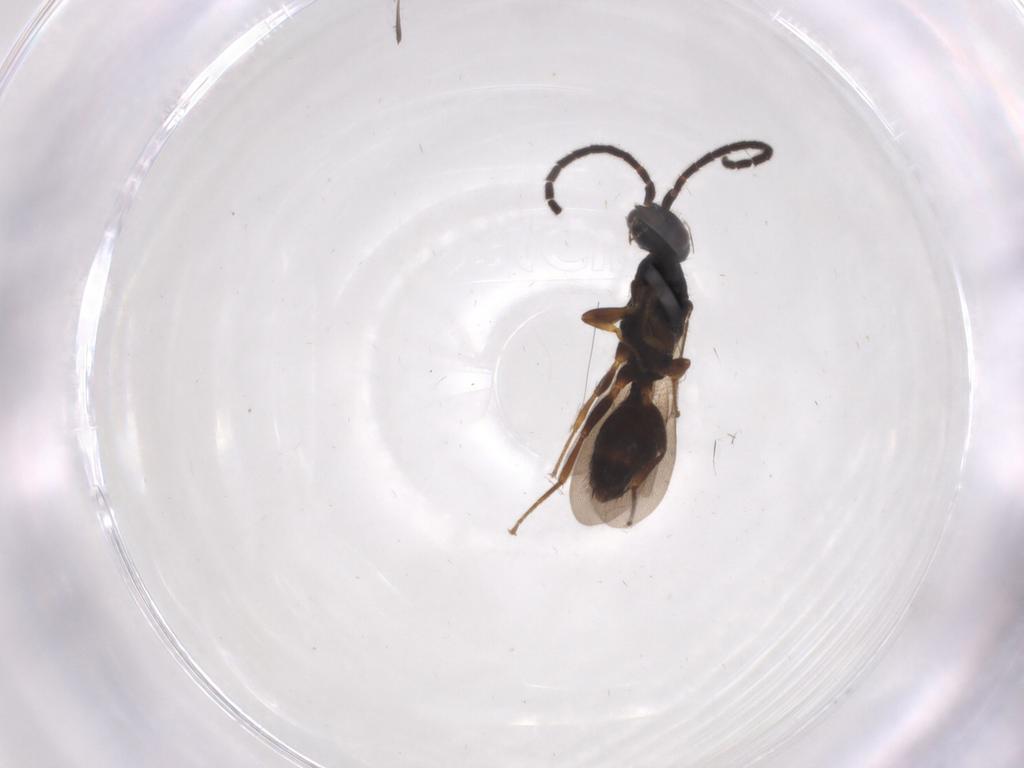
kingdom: Animalia
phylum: Arthropoda
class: Insecta
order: Hymenoptera
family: Bethylidae
